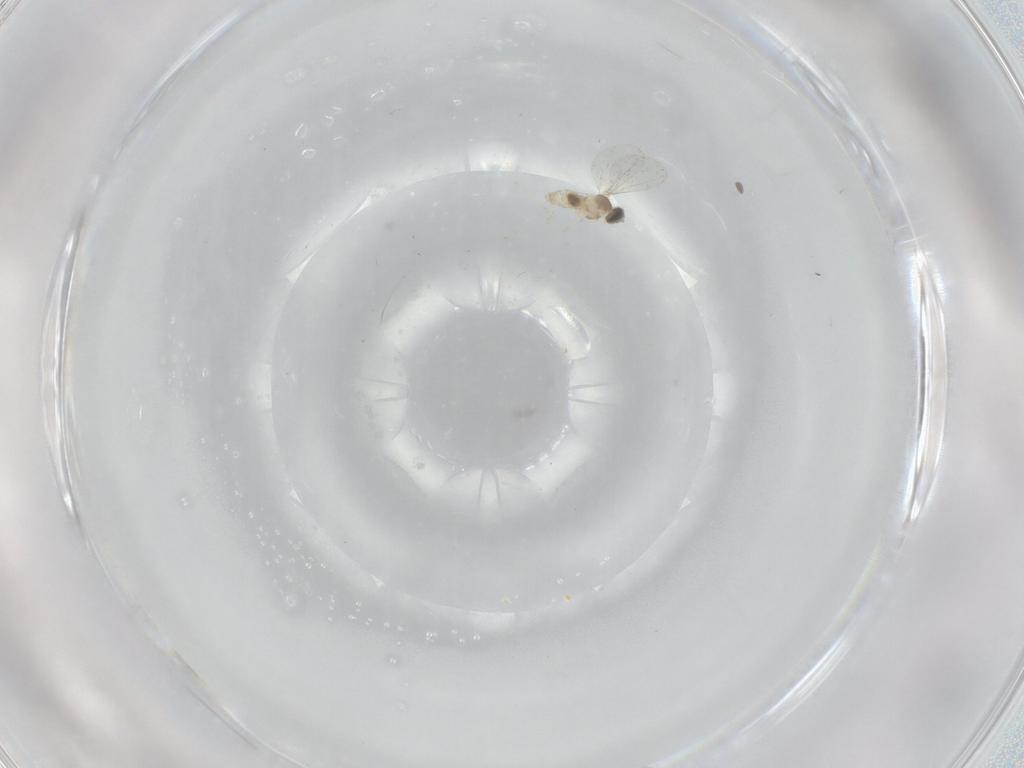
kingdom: Animalia
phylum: Arthropoda
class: Insecta
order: Diptera
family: Cecidomyiidae
